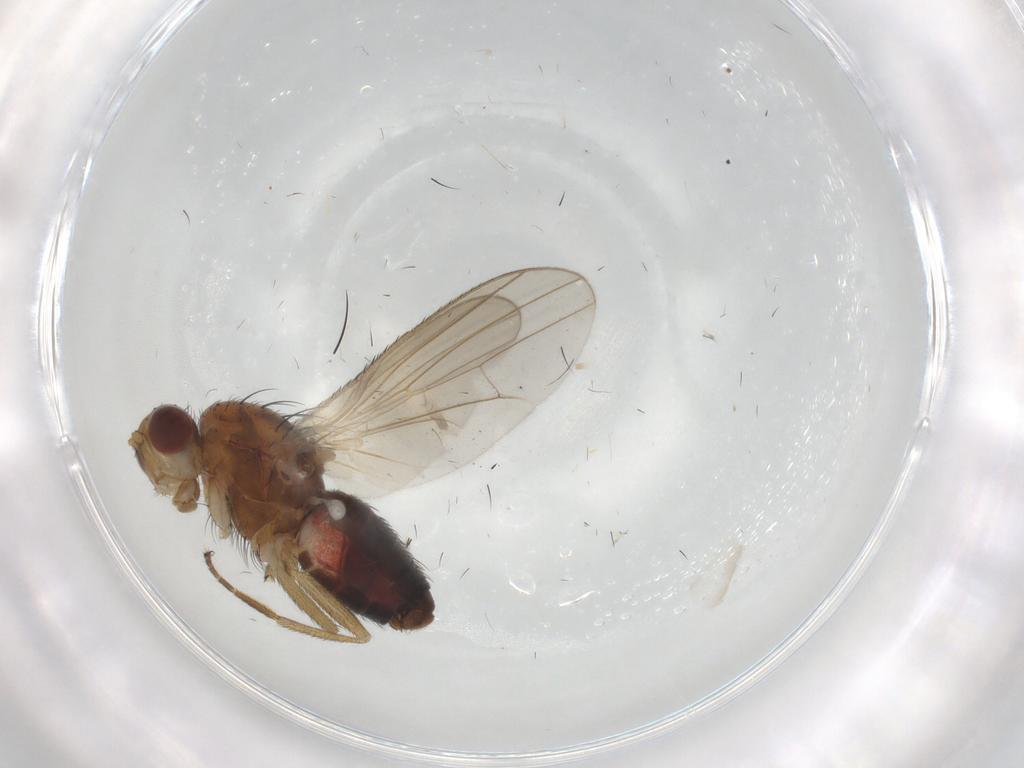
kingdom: Animalia
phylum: Arthropoda
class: Insecta
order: Diptera
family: Heleomyzidae
